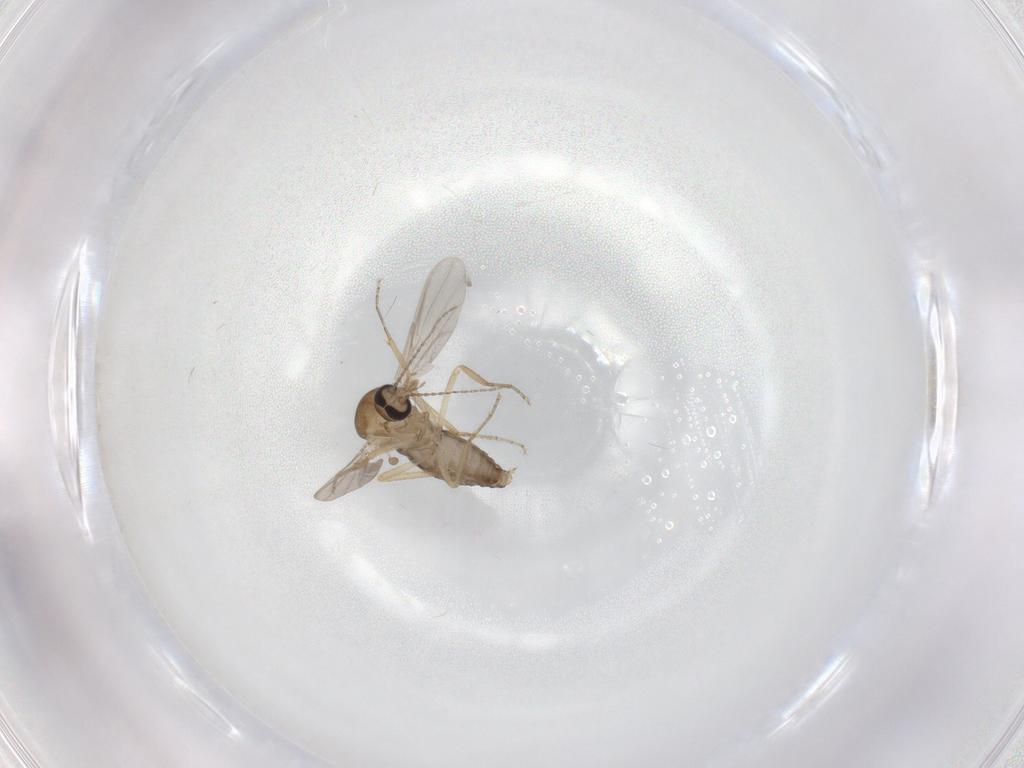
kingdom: Animalia
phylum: Arthropoda
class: Insecta
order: Diptera
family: Ceratopogonidae
